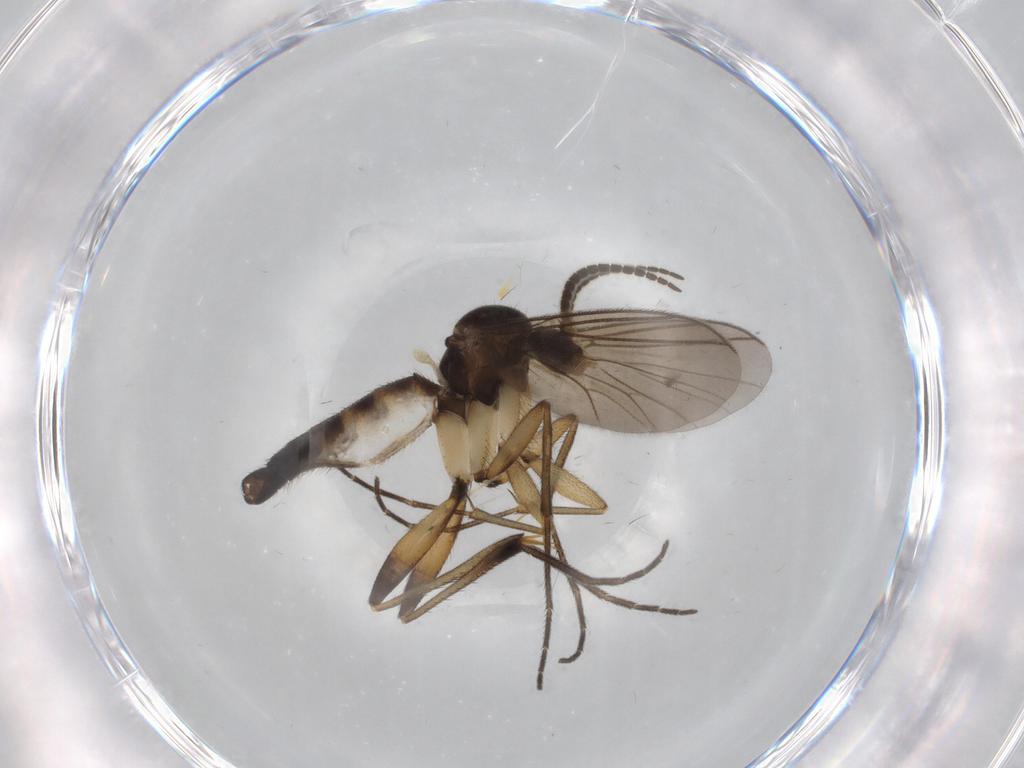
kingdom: Animalia
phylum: Arthropoda
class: Insecta
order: Diptera
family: Mycetophilidae
